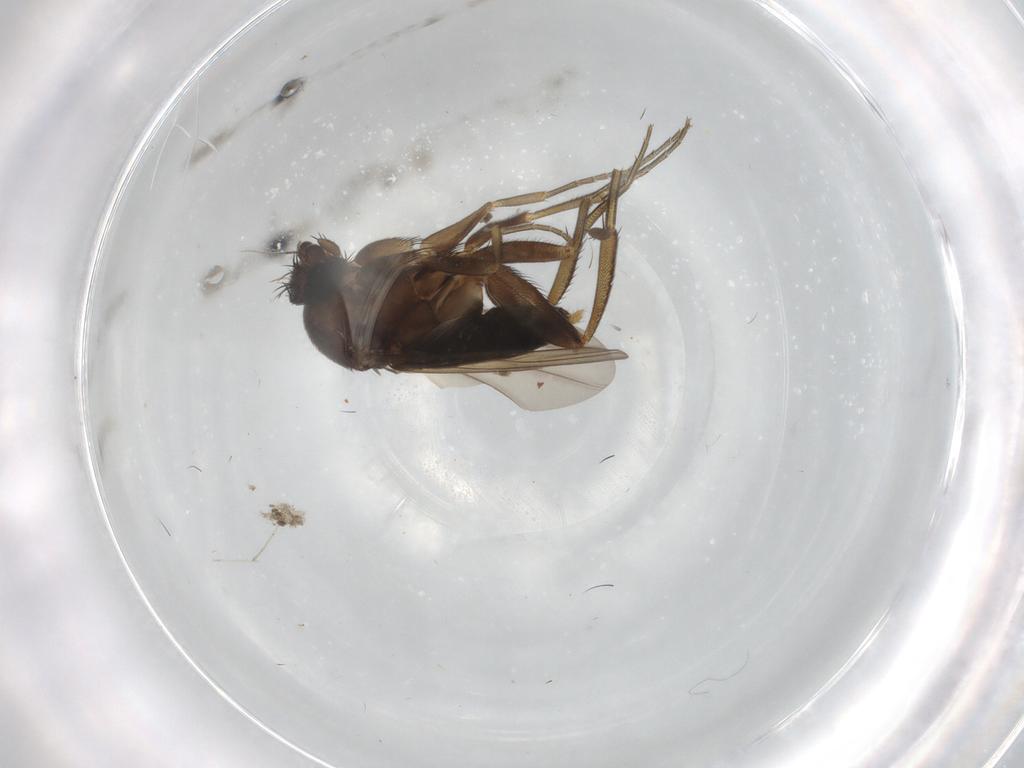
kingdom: Animalia
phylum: Arthropoda
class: Insecta
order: Diptera
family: Phoridae
